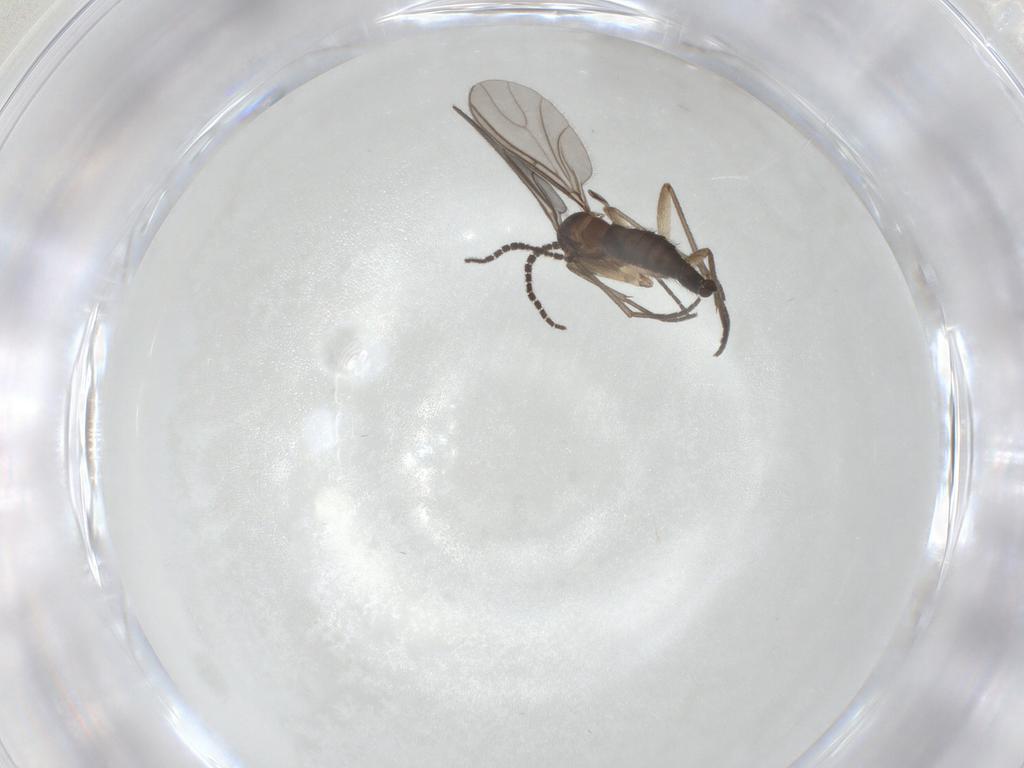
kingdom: Animalia
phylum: Arthropoda
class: Insecta
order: Diptera
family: Sciaridae
